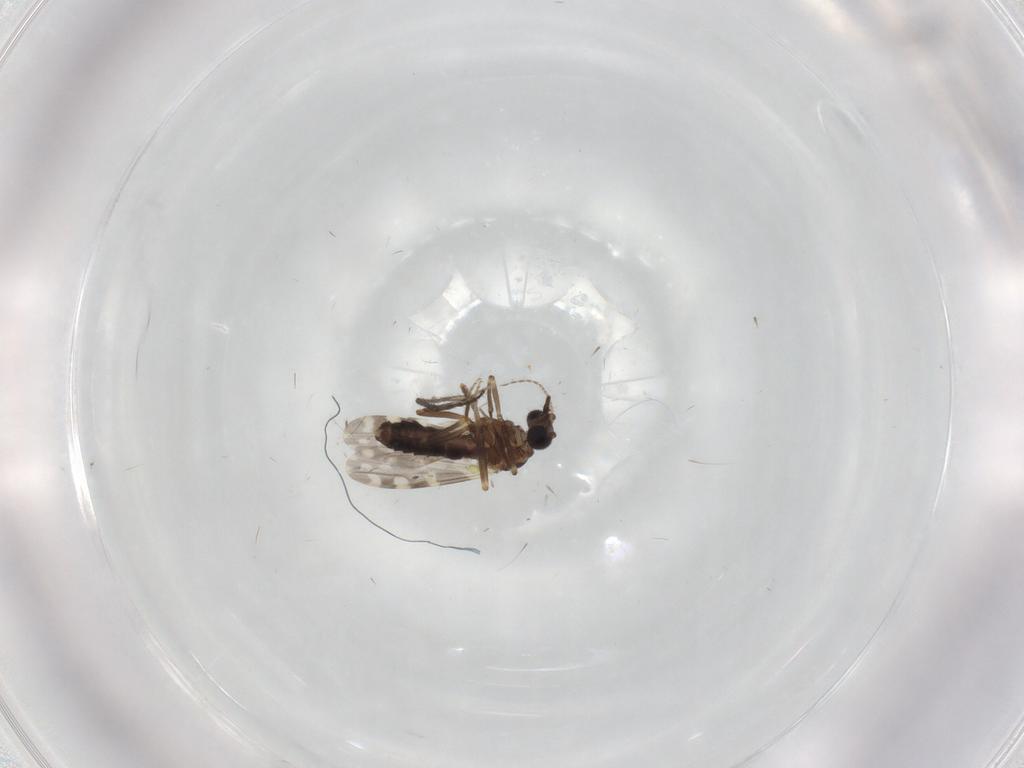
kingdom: Animalia
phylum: Arthropoda
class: Insecta
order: Diptera
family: Ceratopogonidae
